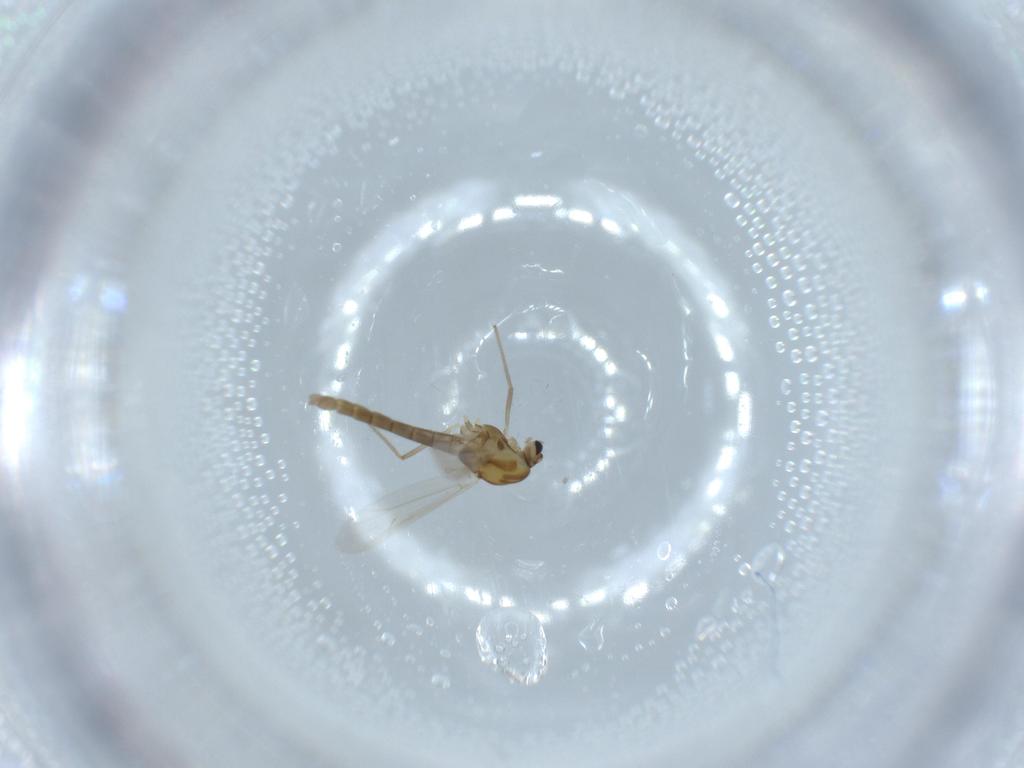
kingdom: Animalia
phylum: Arthropoda
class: Insecta
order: Diptera
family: Chironomidae
